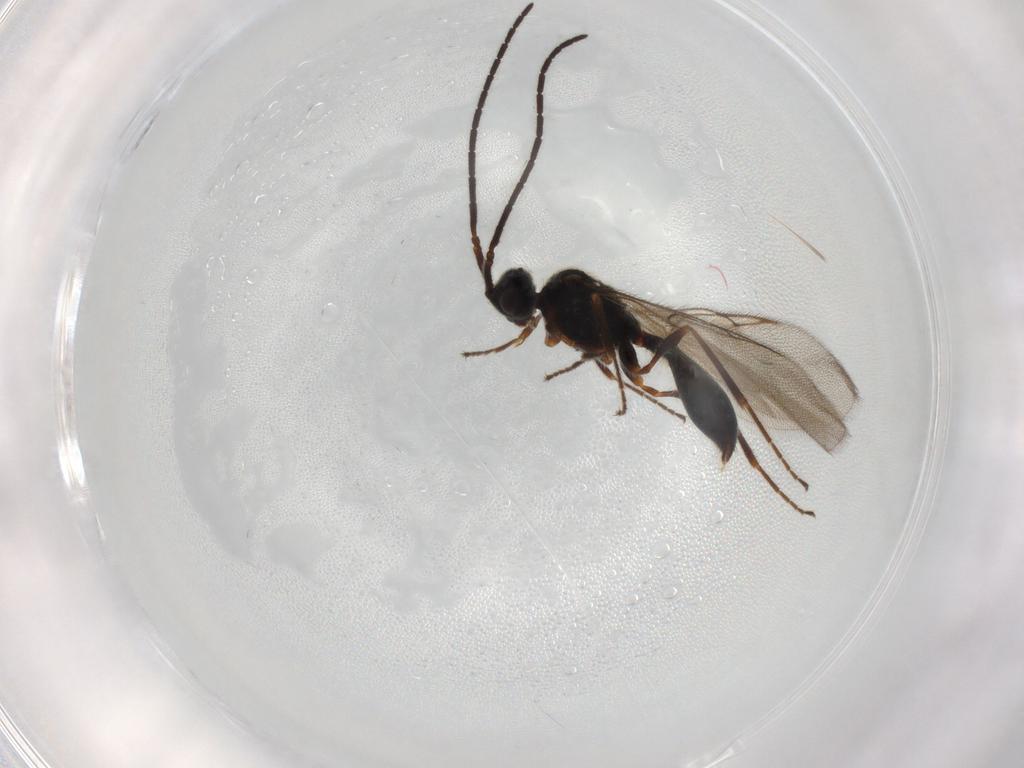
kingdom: Animalia
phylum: Arthropoda
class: Insecta
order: Hymenoptera
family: Diapriidae
